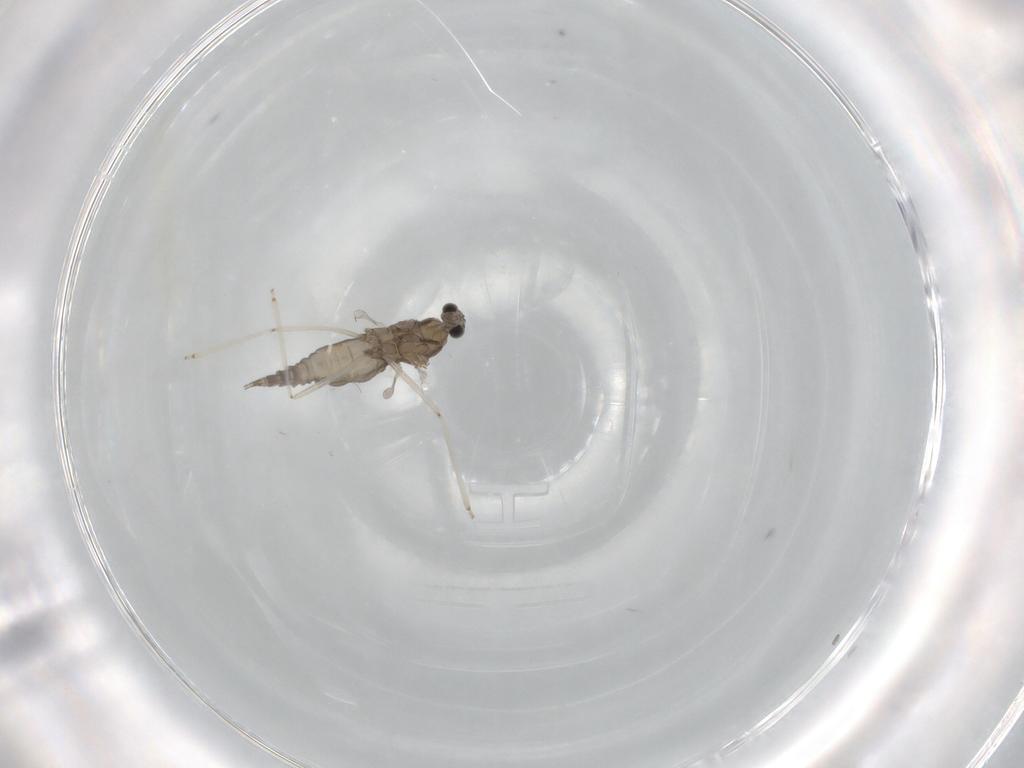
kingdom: Animalia
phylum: Arthropoda
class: Insecta
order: Diptera
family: Cecidomyiidae
